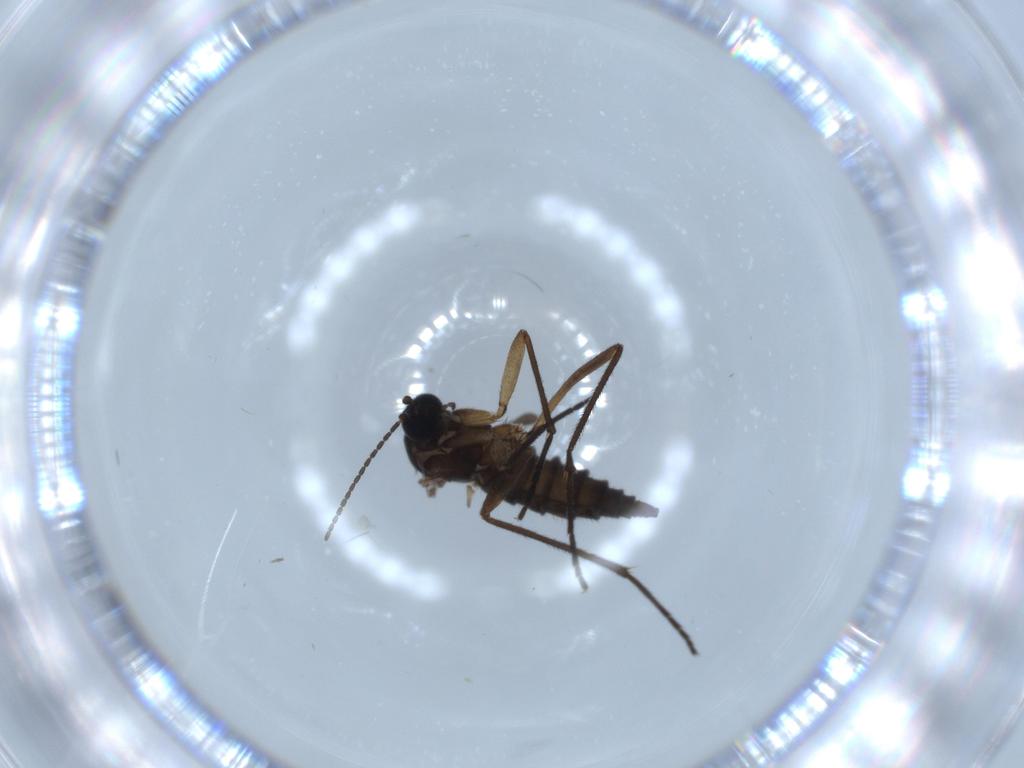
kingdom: Animalia
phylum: Arthropoda
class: Insecta
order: Diptera
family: Sciaridae
